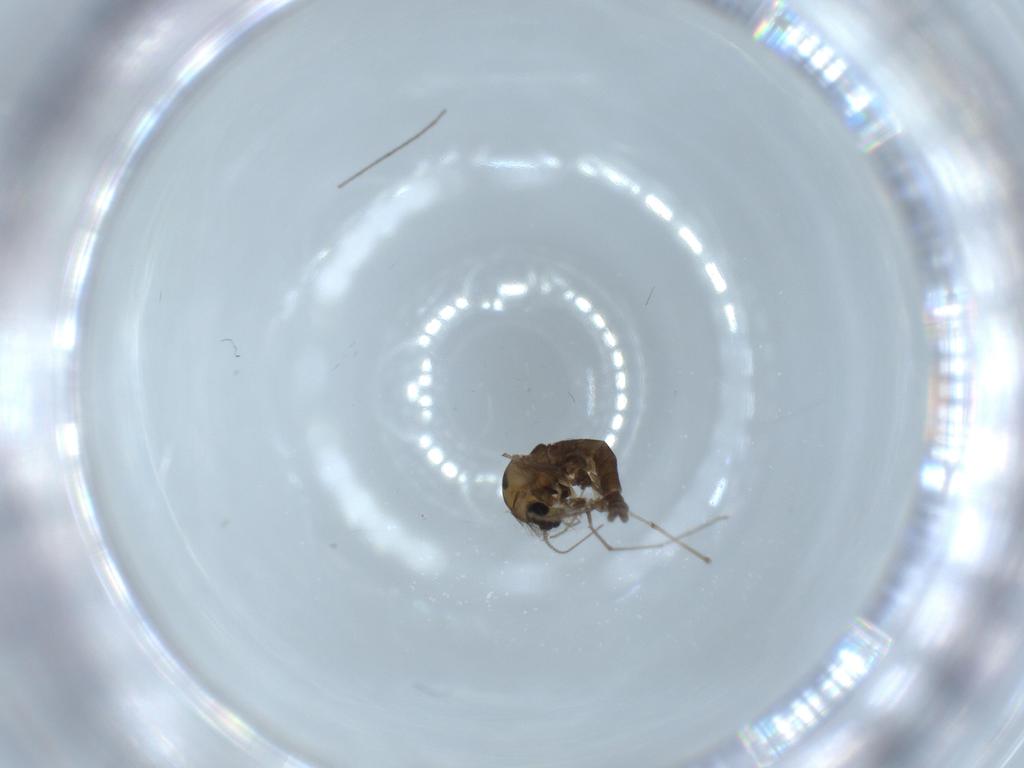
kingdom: Animalia
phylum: Arthropoda
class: Insecta
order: Diptera
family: Chironomidae
